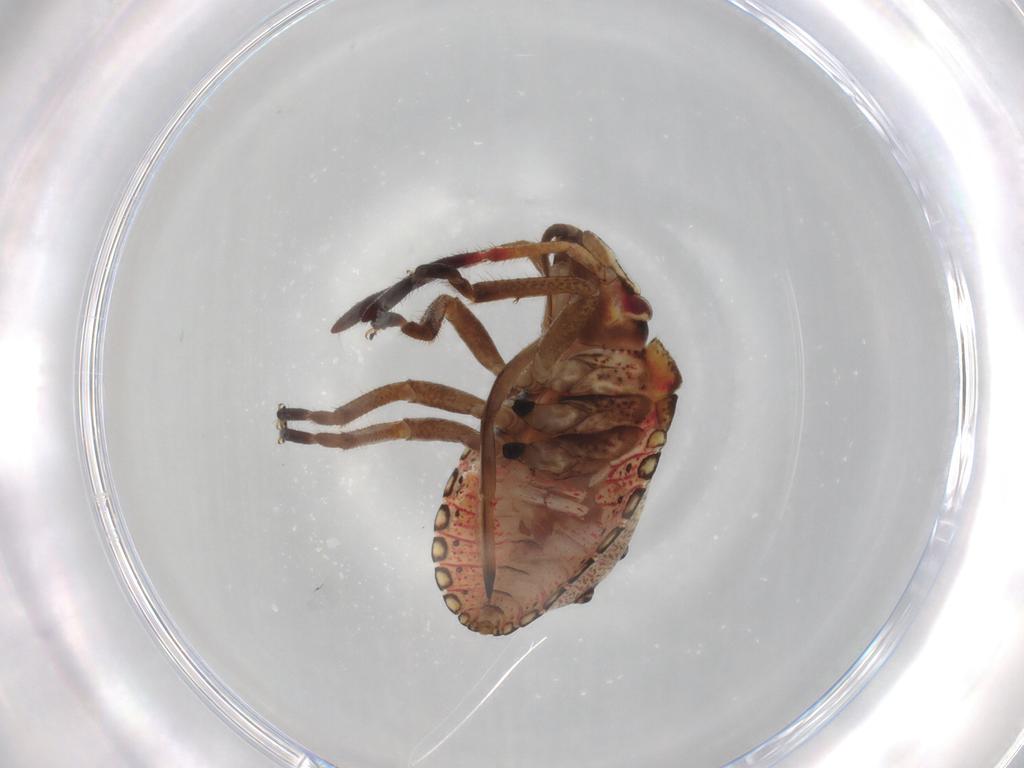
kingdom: Animalia
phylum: Arthropoda
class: Insecta
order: Hemiptera
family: Pentatomidae
